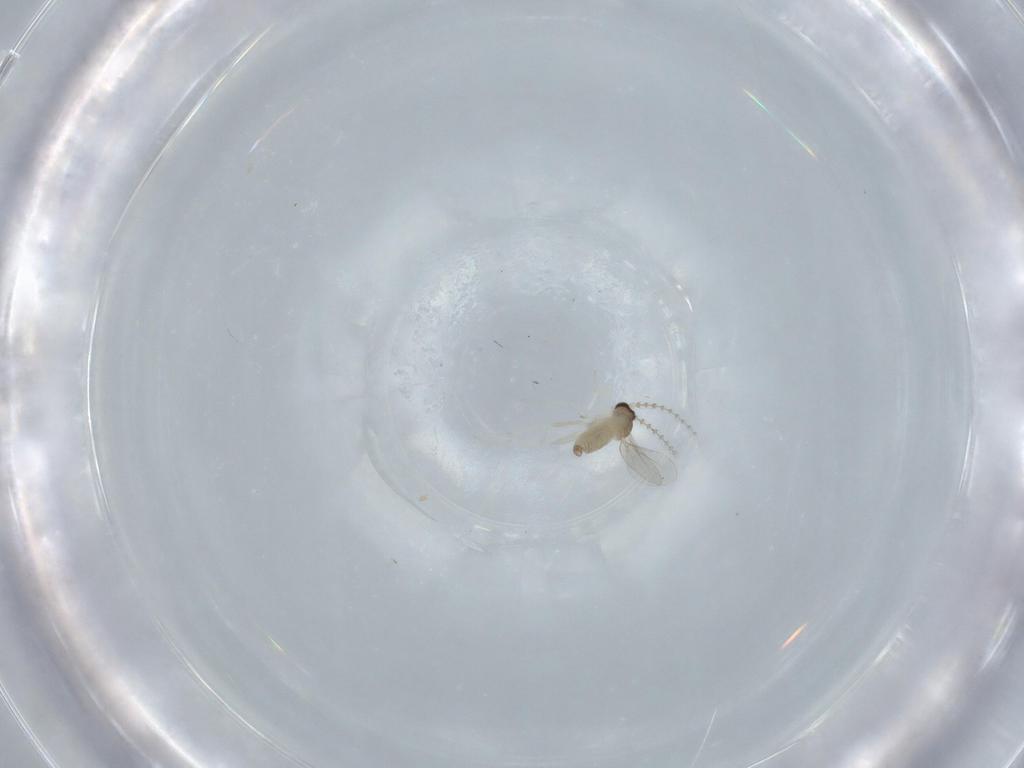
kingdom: Animalia
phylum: Arthropoda
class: Insecta
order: Diptera
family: Cecidomyiidae
